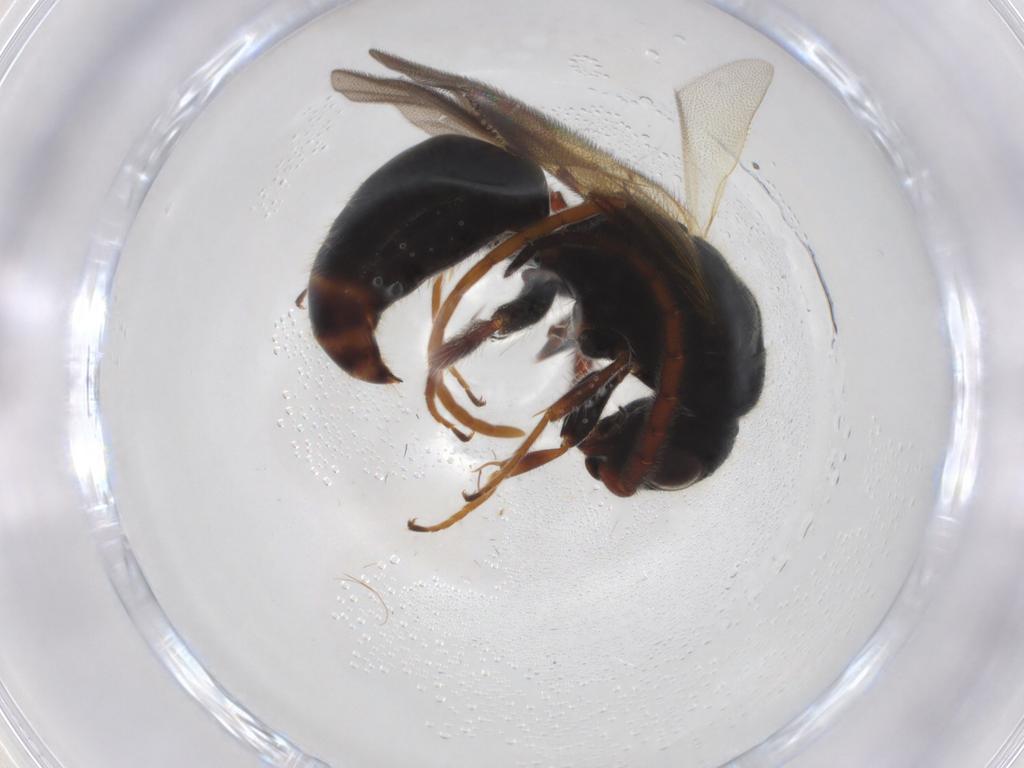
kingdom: Animalia
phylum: Arthropoda
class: Insecta
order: Hymenoptera
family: Bethylidae
